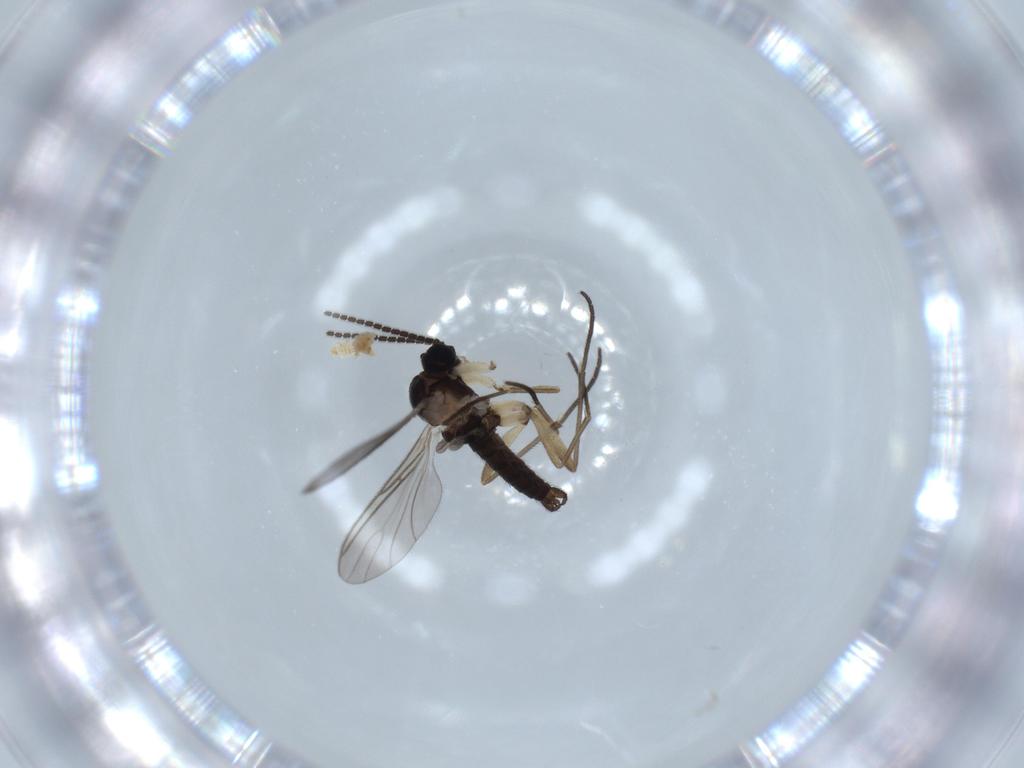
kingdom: Animalia
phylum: Arthropoda
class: Insecta
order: Diptera
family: Sciaridae
